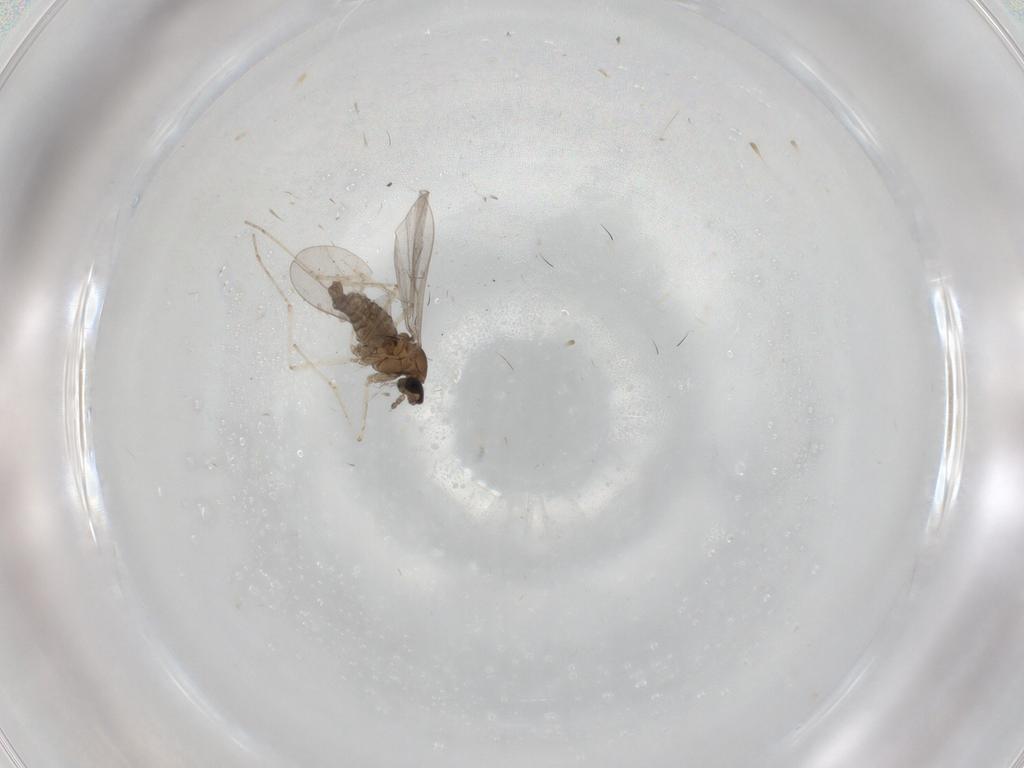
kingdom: Animalia
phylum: Arthropoda
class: Insecta
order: Diptera
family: Cecidomyiidae
